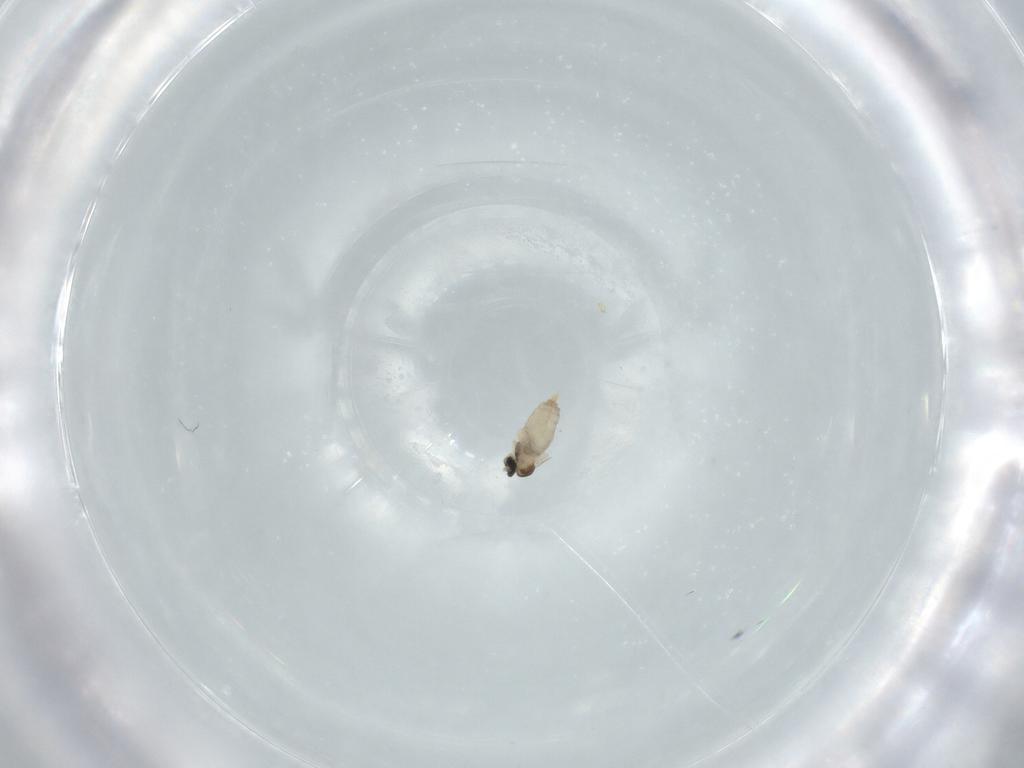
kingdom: Animalia
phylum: Arthropoda
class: Insecta
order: Diptera
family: Cecidomyiidae
